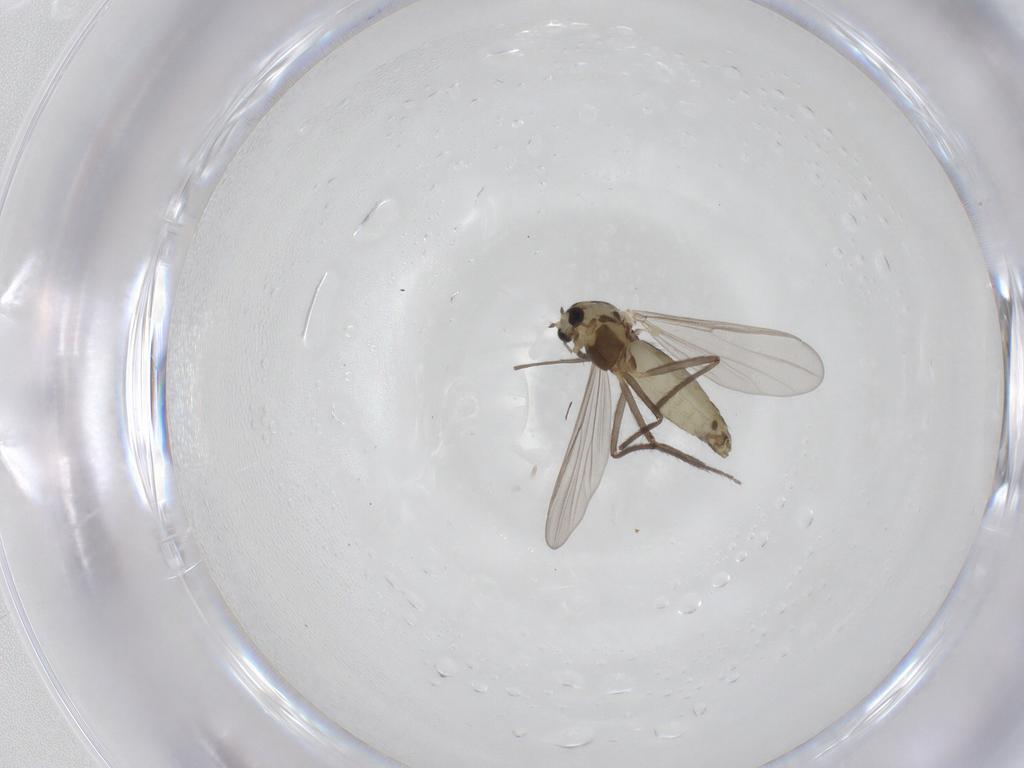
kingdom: Animalia
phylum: Arthropoda
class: Insecta
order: Diptera
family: Chironomidae
